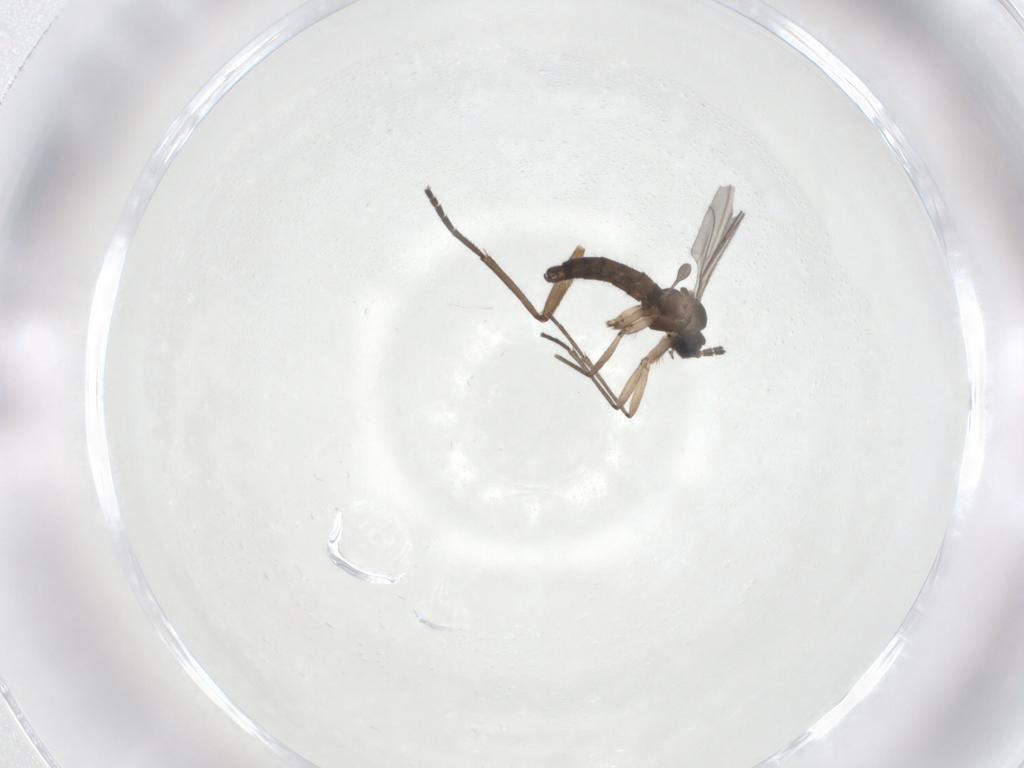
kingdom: Animalia
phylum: Arthropoda
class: Insecta
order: Diptera
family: Sciaridae
